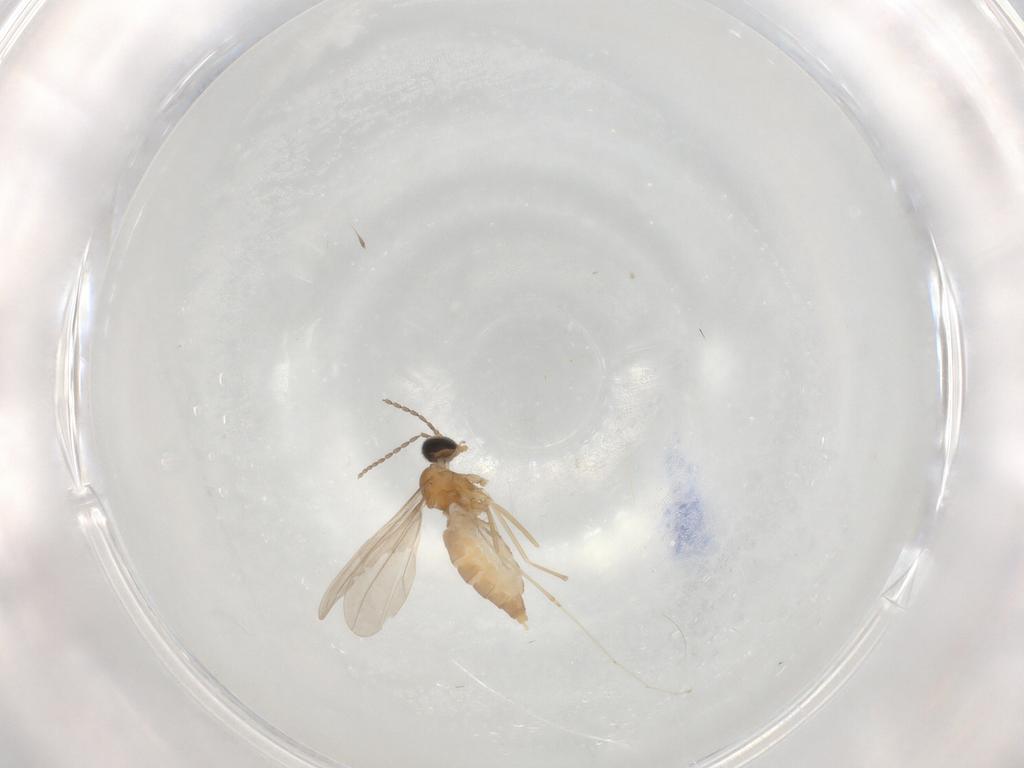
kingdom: Animalia
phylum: Arthropoda
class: Insecta
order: Diptera
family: Cecidomyiidae
